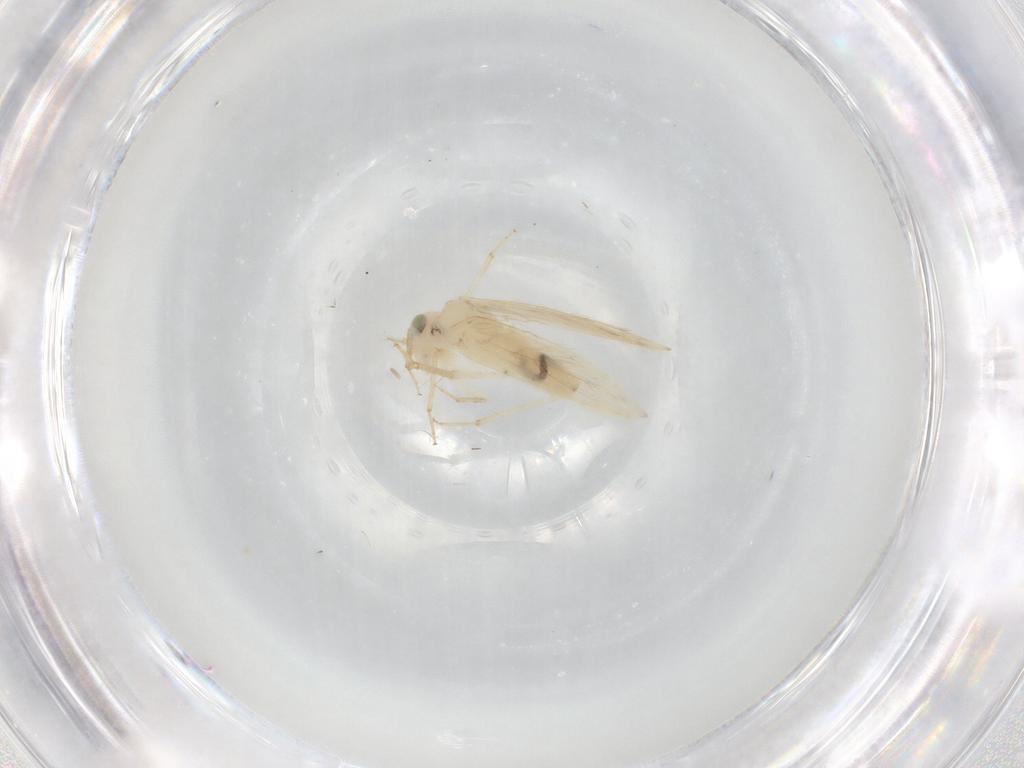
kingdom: Animalia
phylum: Arthropoda
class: Insecta
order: Psocodea
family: Lepidopsocidae
